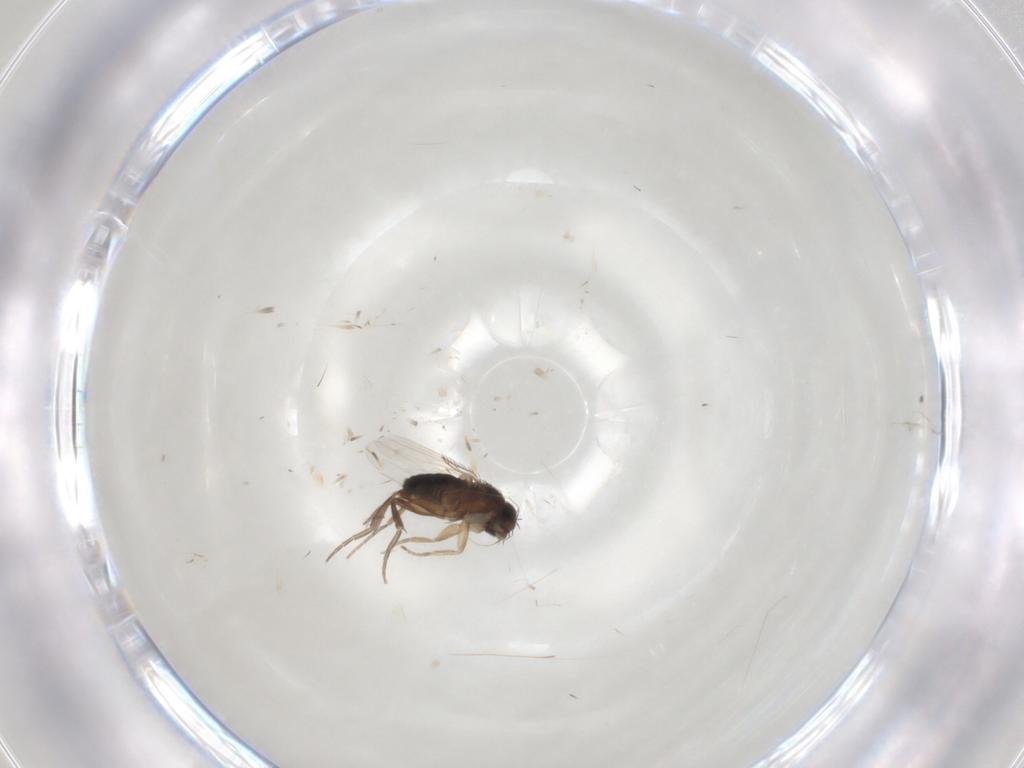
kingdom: Animalia
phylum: Arthropoda
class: Insecta
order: Diptera
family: Phoridae
